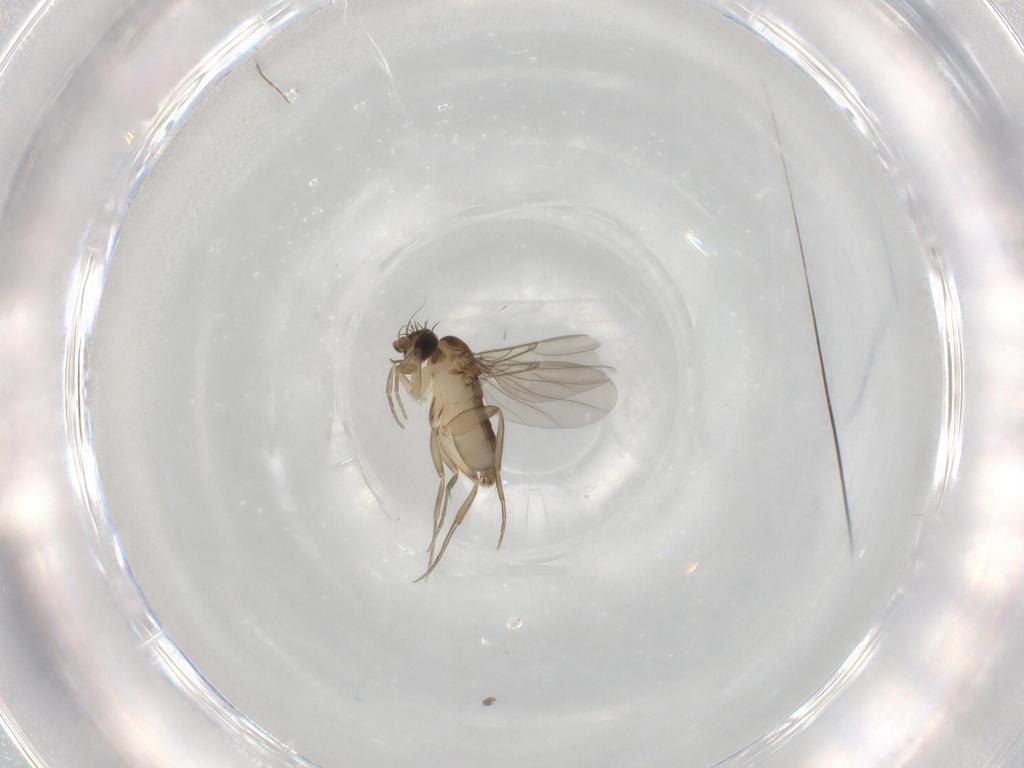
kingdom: Animalia
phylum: Arthropoda
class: Insecta
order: Diptera
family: Phoridae
